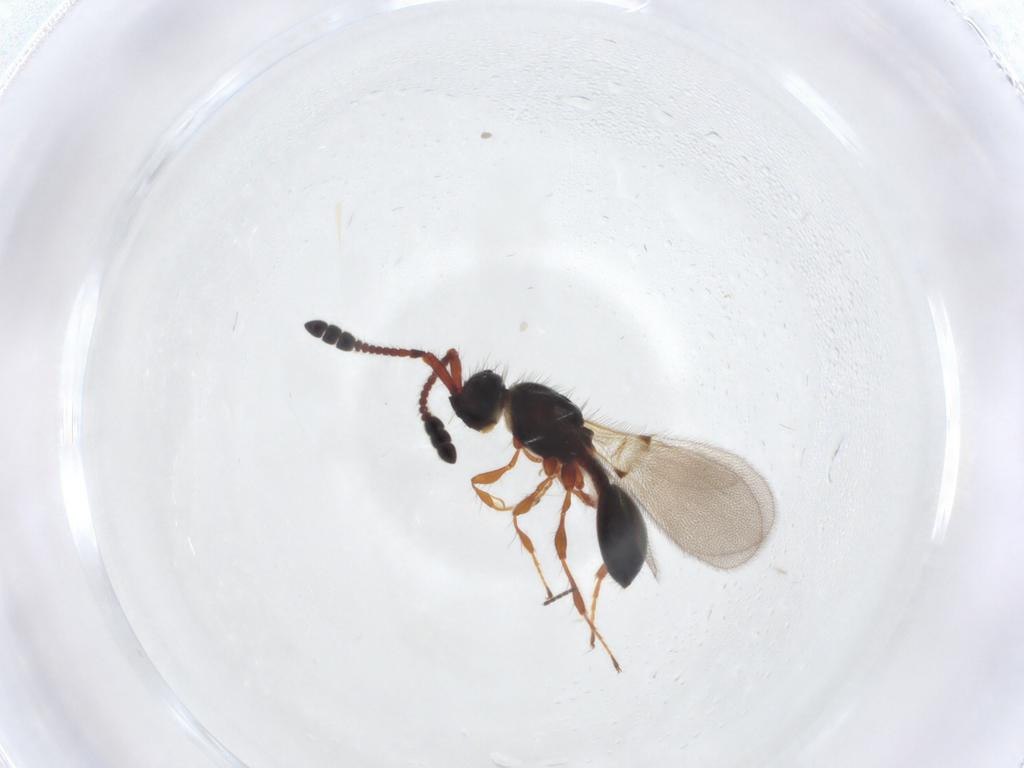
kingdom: Animalia
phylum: Arthropoda
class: Insecta
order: Hymenoptera
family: Diapriidae
